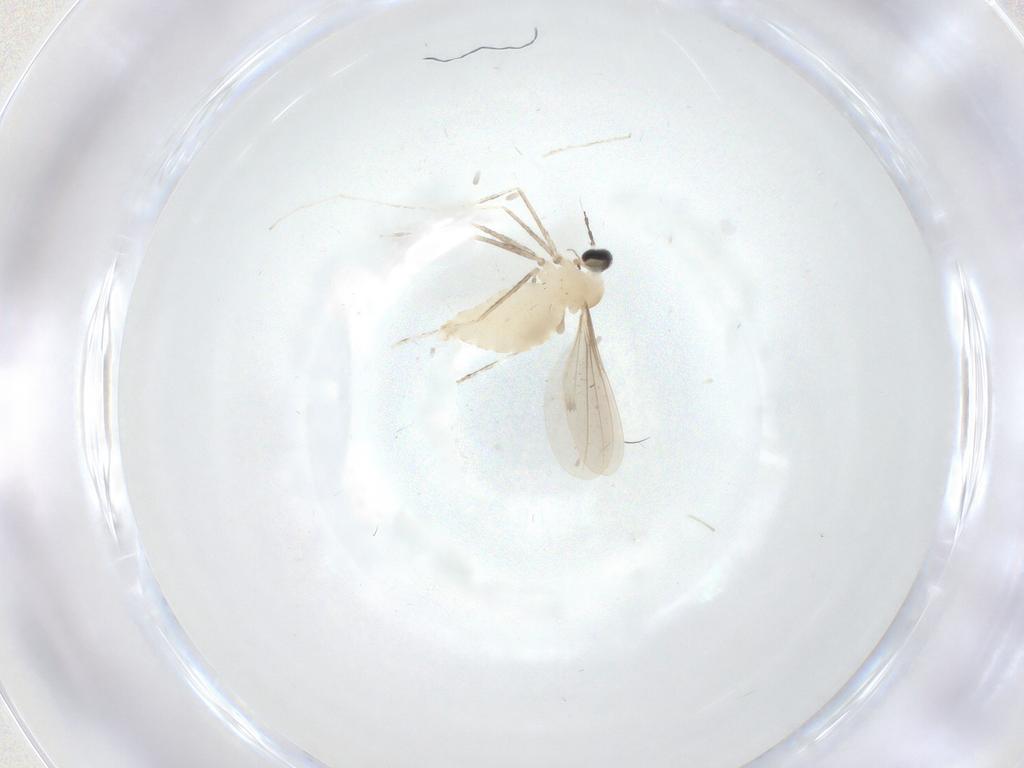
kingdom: Animalia
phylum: Arthropoda
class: Insecta
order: Diptera
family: Cecidomyiidae
